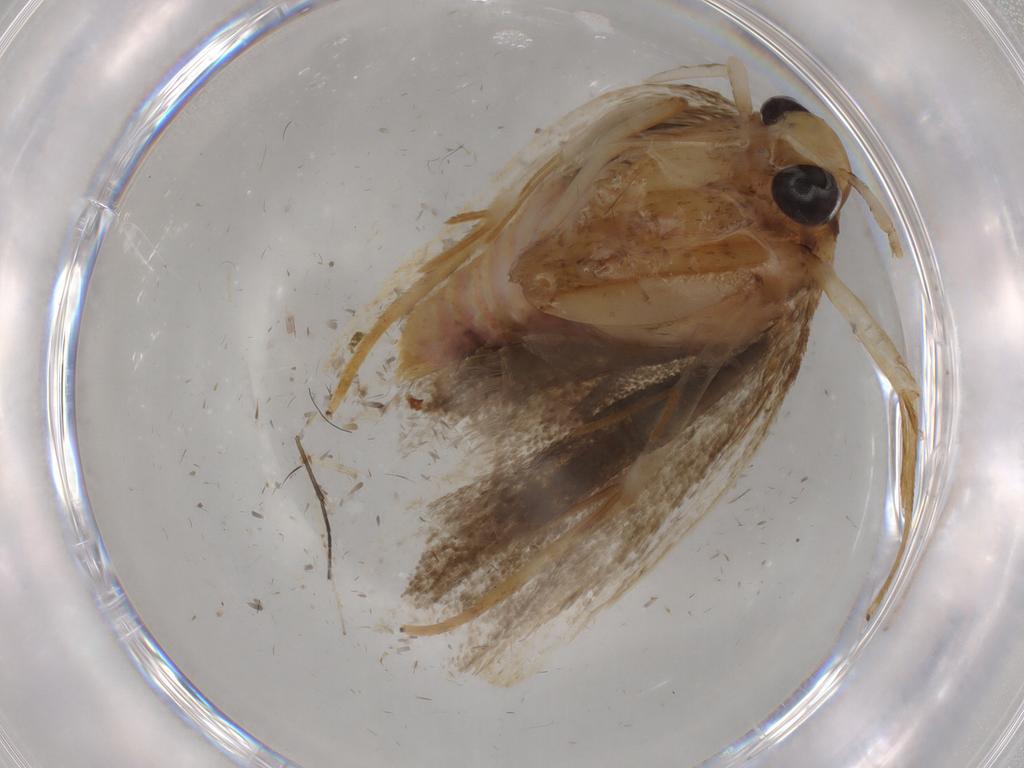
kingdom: Animalia
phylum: Arthropoda
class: Insecta
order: Lepidoptera
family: Autostichidae
